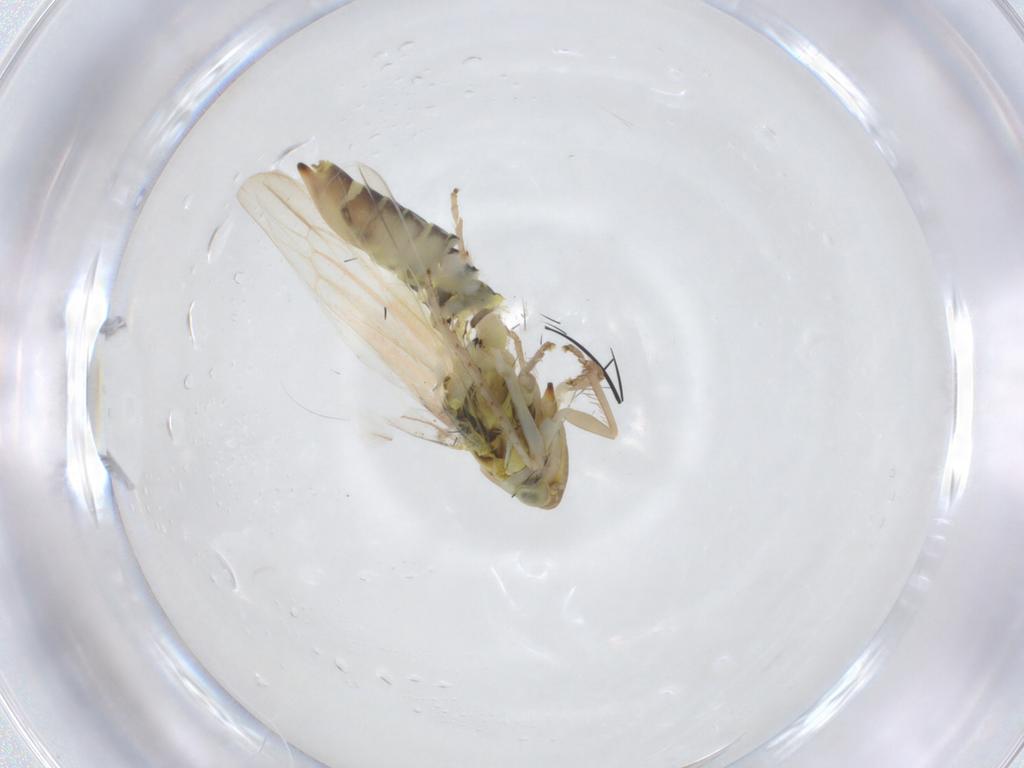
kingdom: Animalia
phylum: Arthropoda
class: Insecta
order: Hemiptera
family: Cicadellidae
